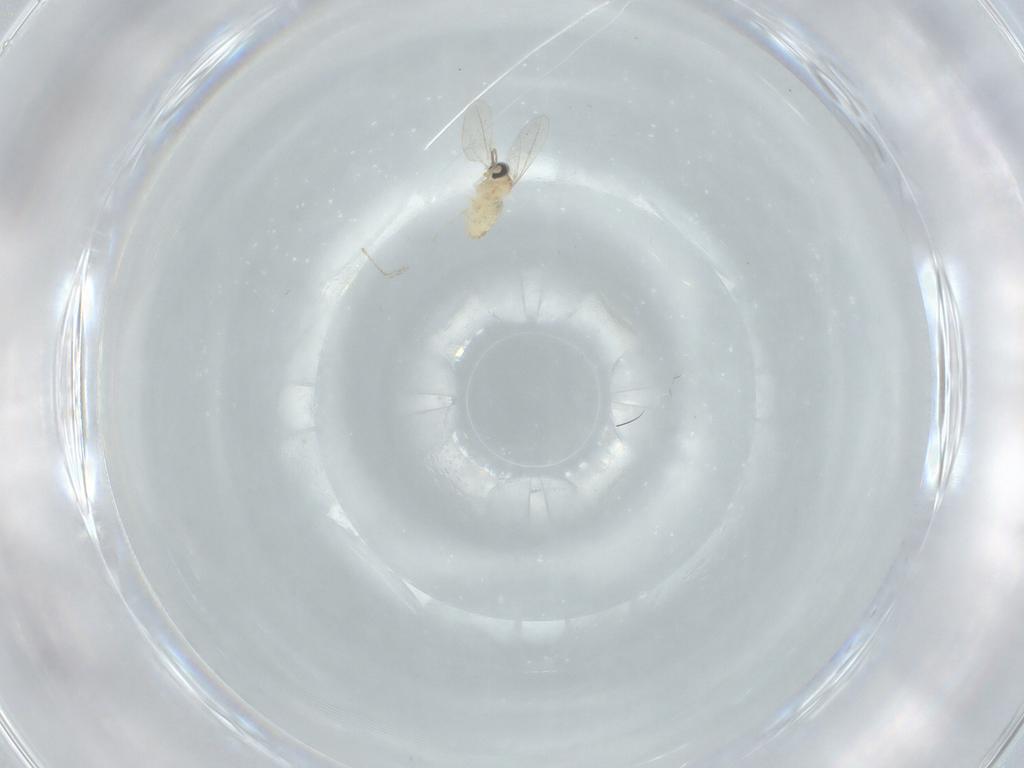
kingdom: Animalia
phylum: Arthropoda
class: Insecta
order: Diptera
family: Cecidomyiidae
